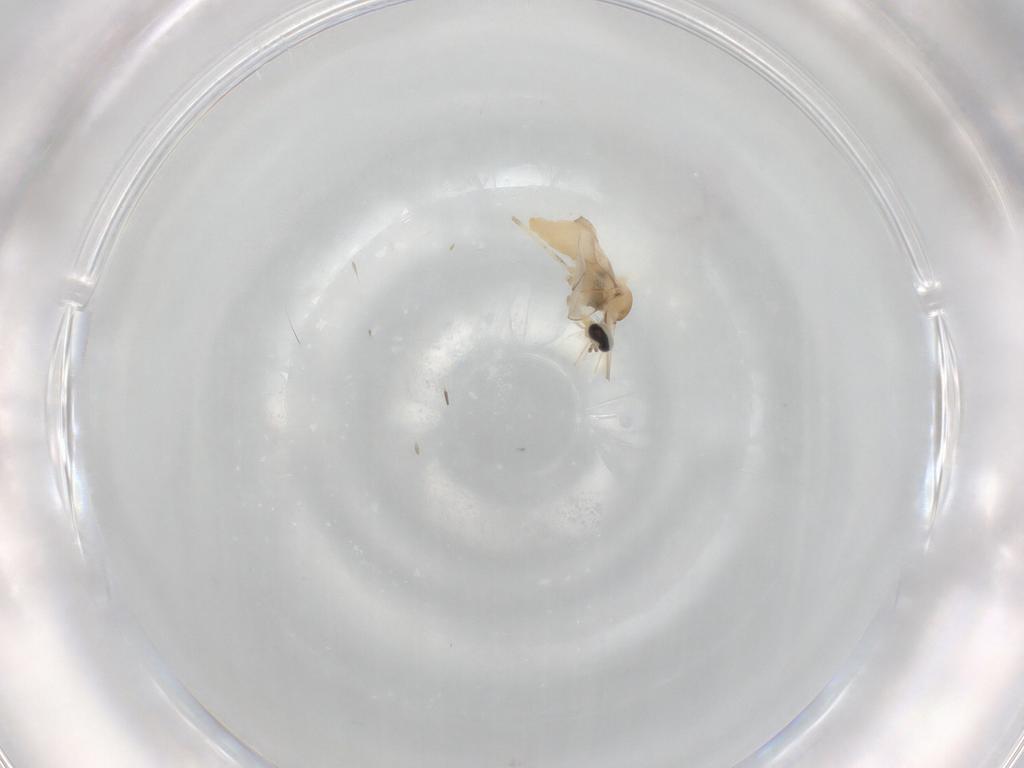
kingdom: Animalia
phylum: Arthropoda
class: Insecta
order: Diptera
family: Cecidomyiidae
